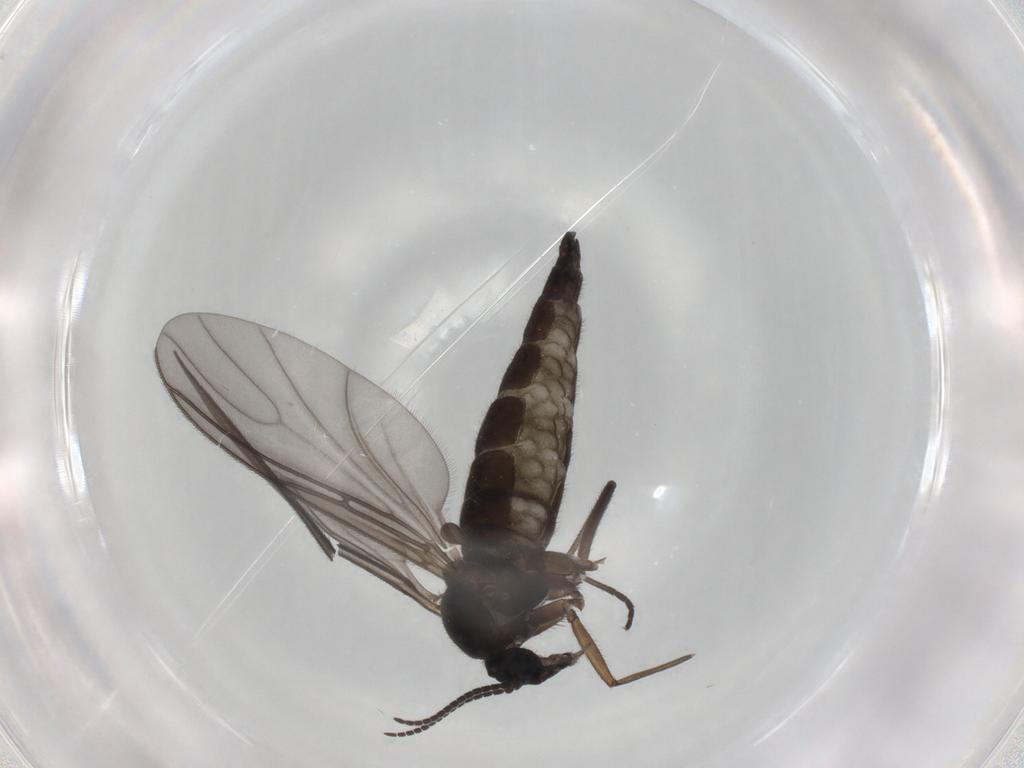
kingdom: Animalia
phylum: Arthropoda
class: Insecta
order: Diptera
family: Sciaridae
